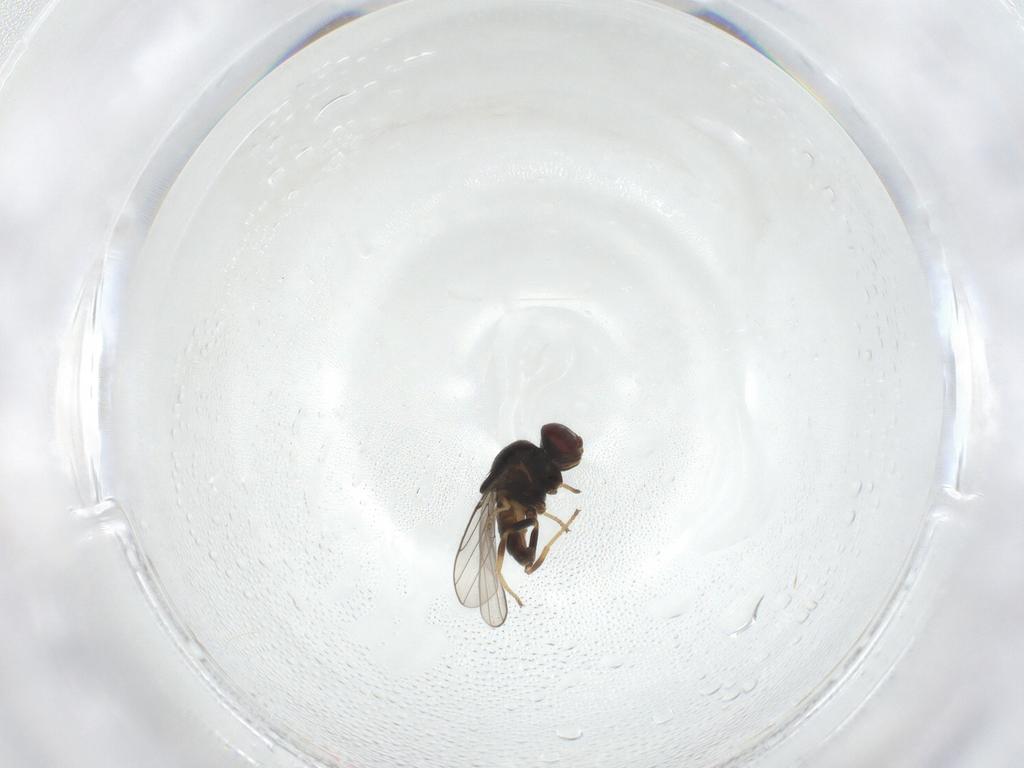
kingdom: Animalia
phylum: Arthropoda
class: Insecta
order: Diptera
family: Chloropidae
